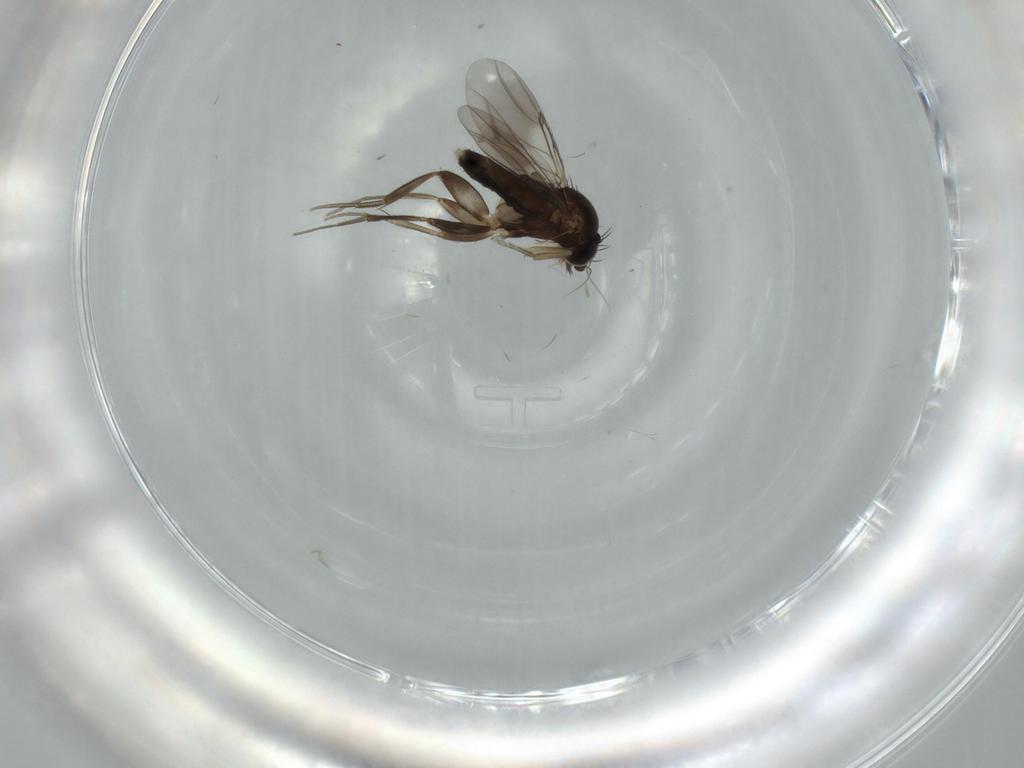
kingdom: Animalia
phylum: Arthropoda
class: Insecta
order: Diptera
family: Phoridae
